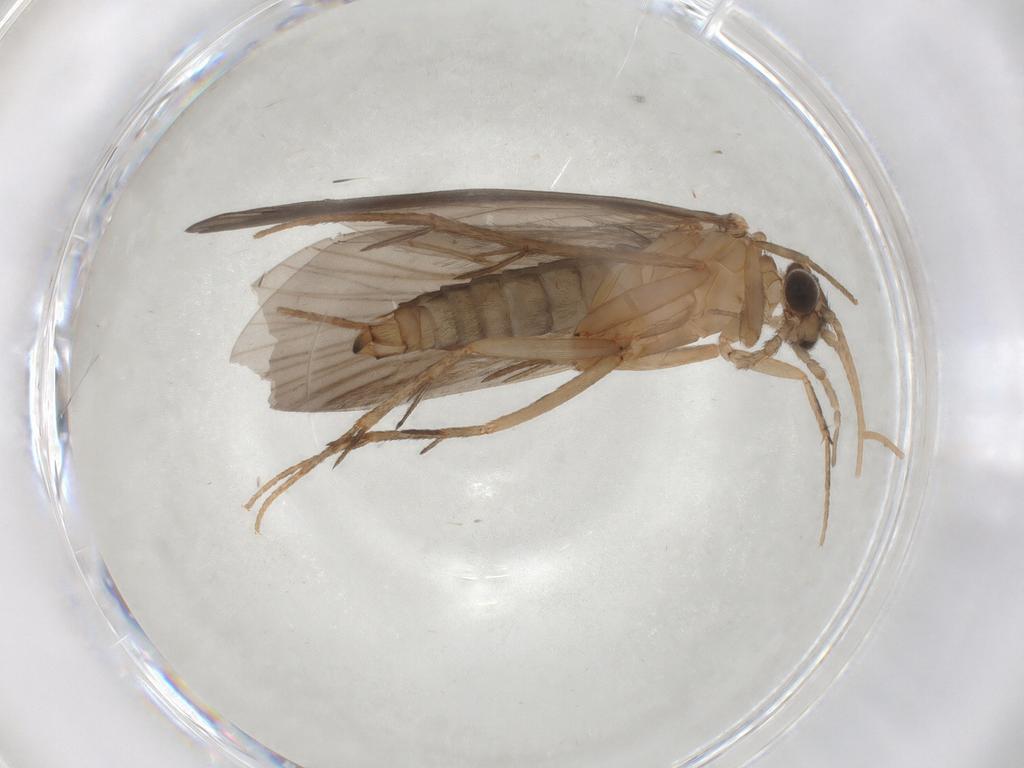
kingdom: Animalia
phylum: Arthropoda
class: Insecta
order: Trichoptera
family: Philopotamidae
